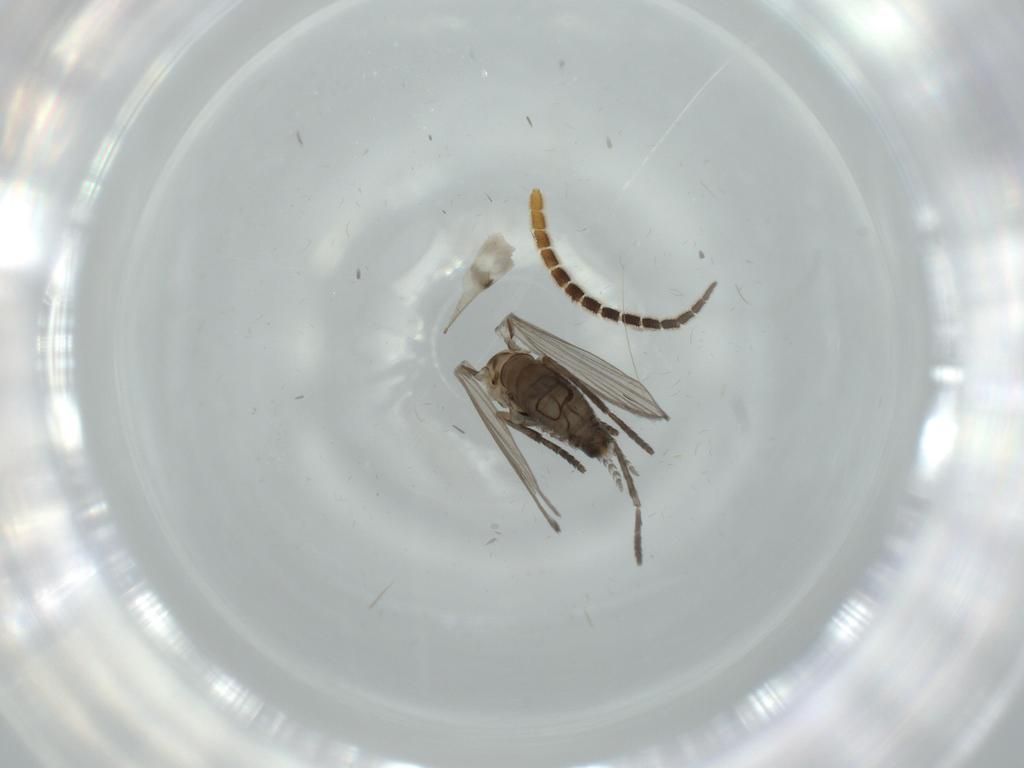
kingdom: Animalia
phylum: Arthropoda
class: Insecta
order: Diptera
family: Psychodidae
